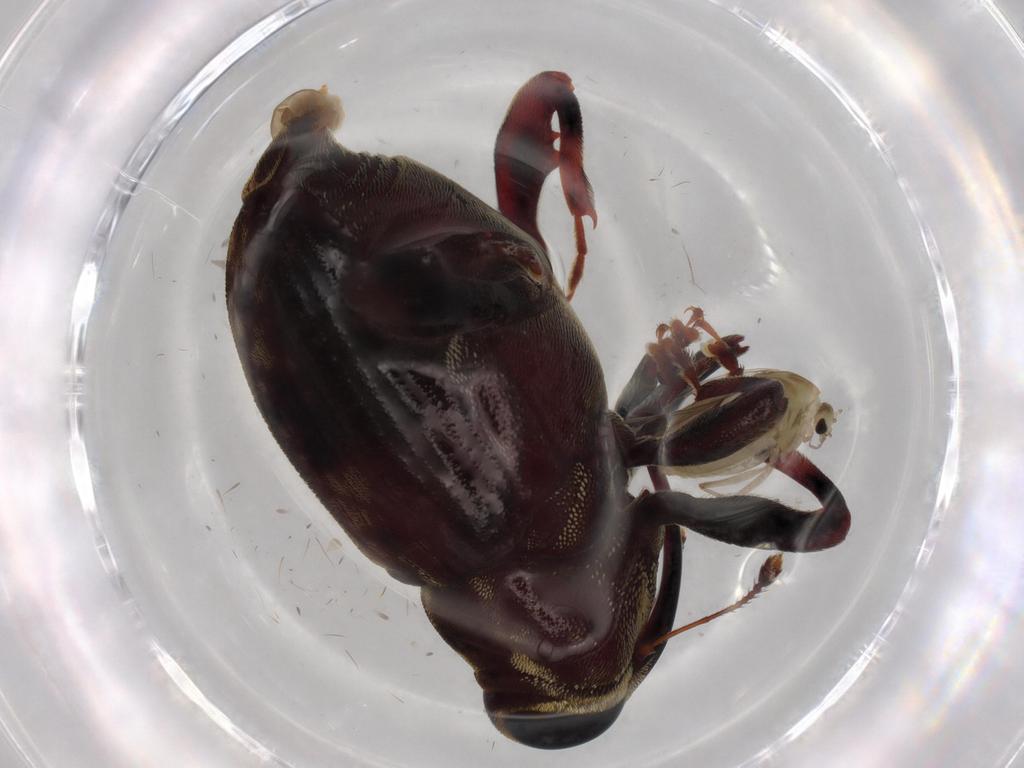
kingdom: Animalia
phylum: Arthropoda
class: Insecta
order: Coleoptera
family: Curculionidae
